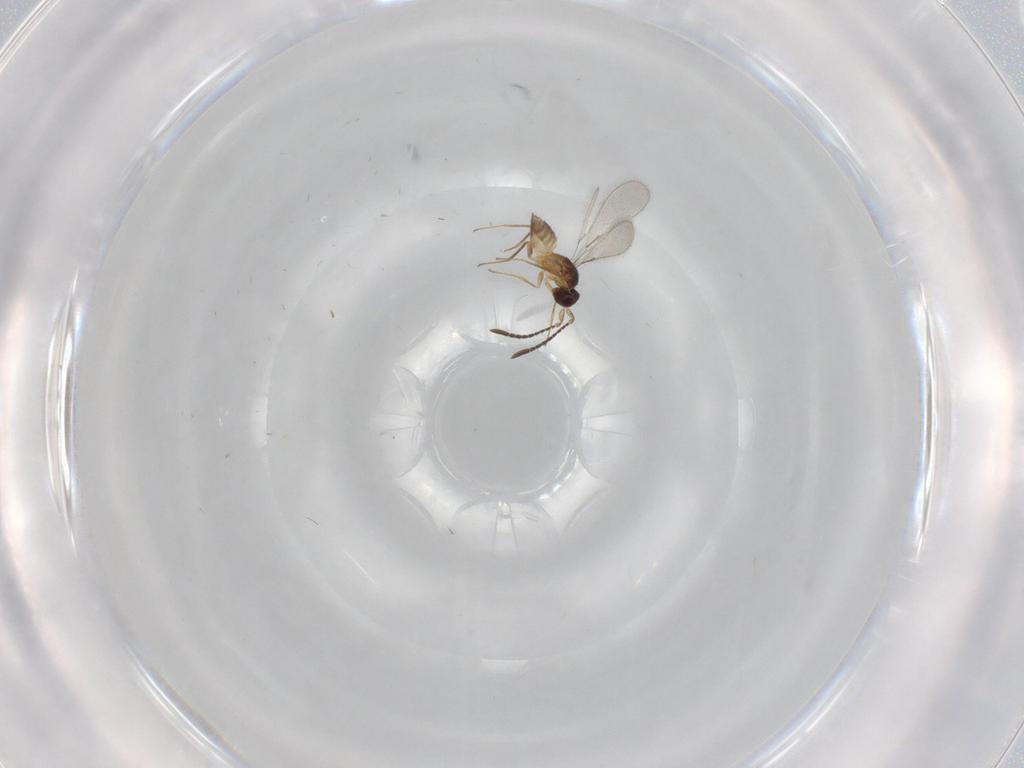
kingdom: Animalia
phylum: Arthropoda
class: Insecta
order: Hymenoptera
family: Mymaridae
